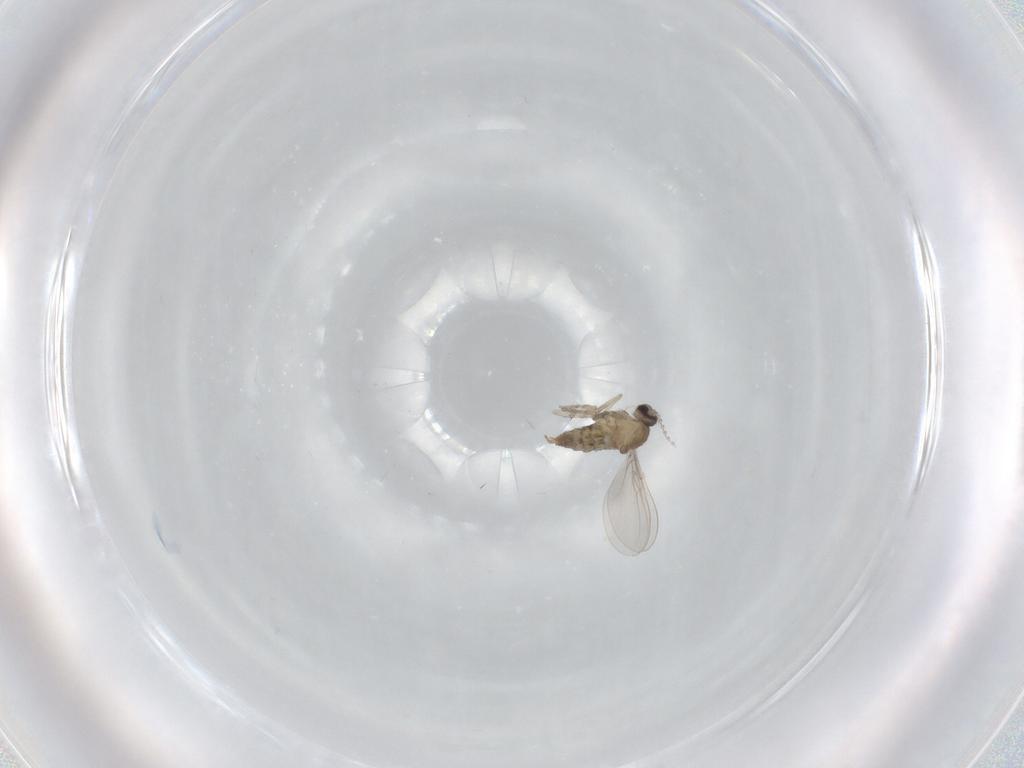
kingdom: Animalia
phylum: Arthropoda
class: Insecta
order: Diptera
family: Cecidomyiidae
